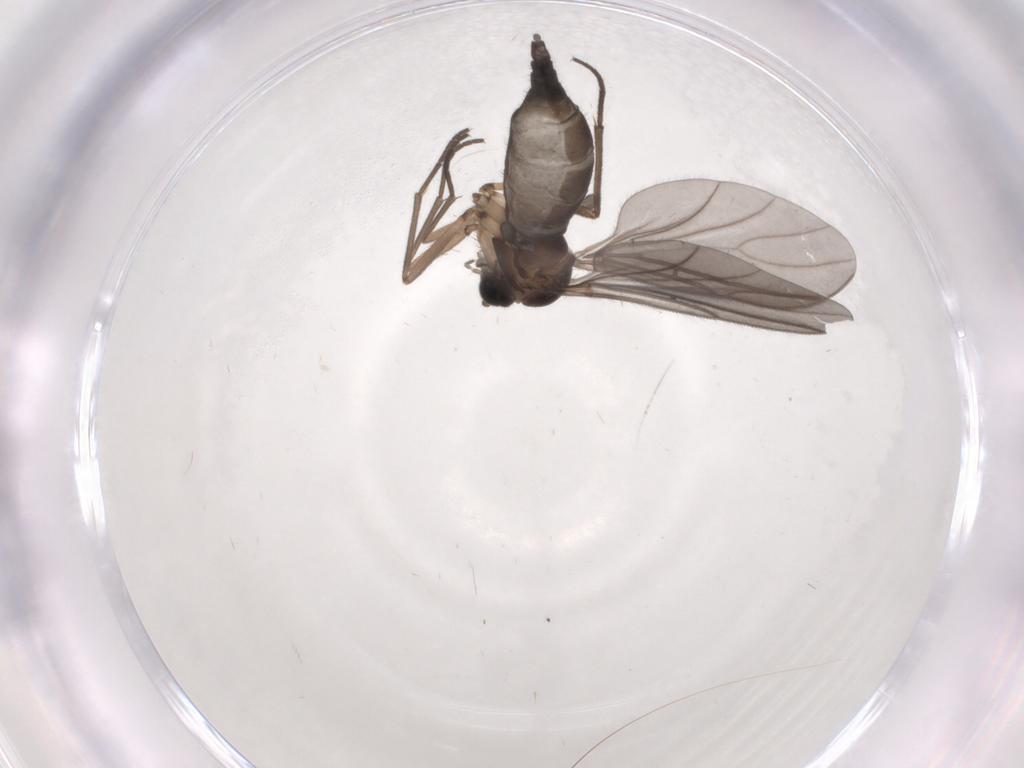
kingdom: Animalia
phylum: Arthropoda
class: Insecta
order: Diptera
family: Sciaridae
